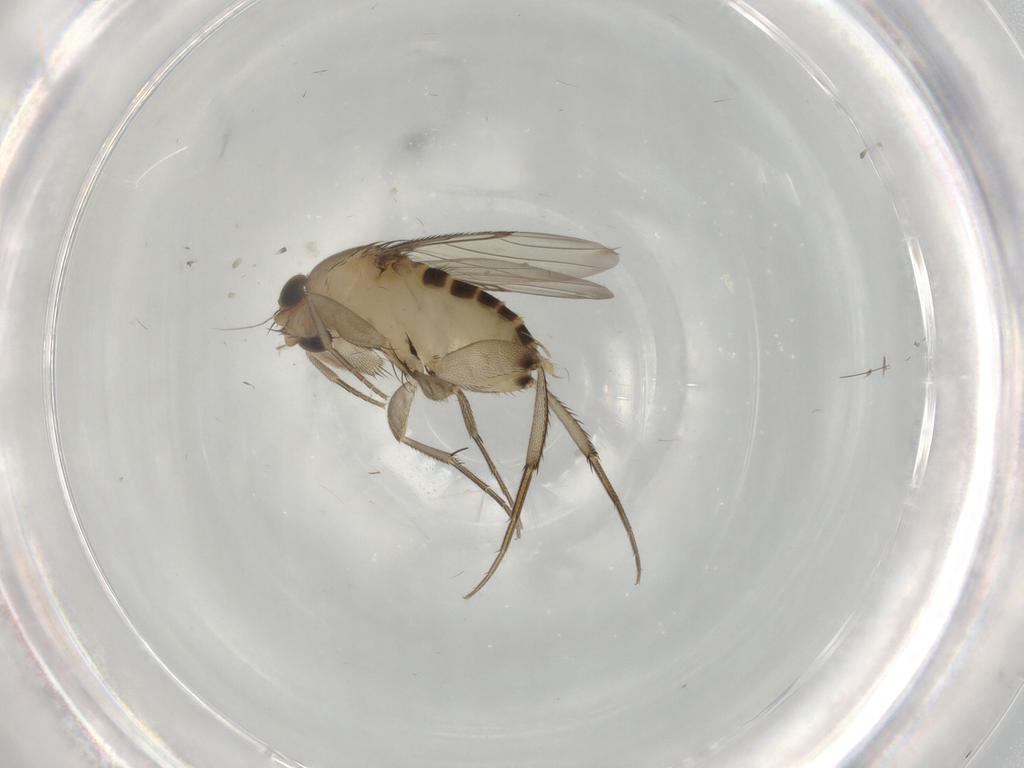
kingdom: Animalia
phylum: Arthropoda
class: Insecta
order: Diptera
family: Phoridae
